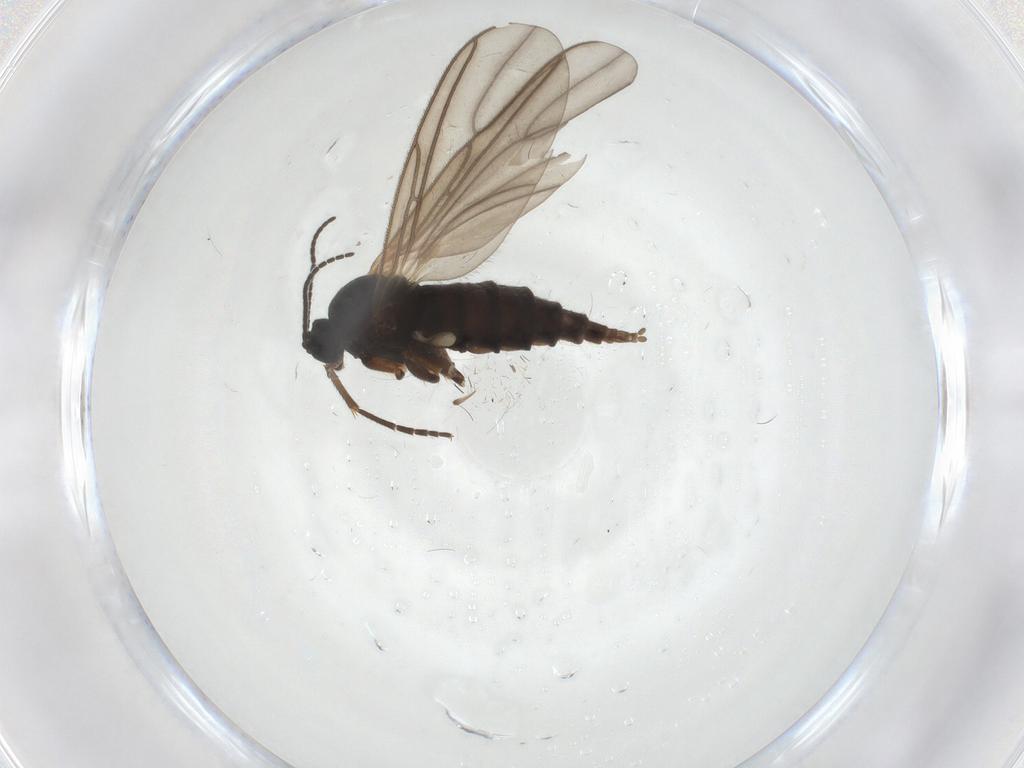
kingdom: Animalia
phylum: Arthropoda
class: Insecta
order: Diptera
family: Sciaridae
